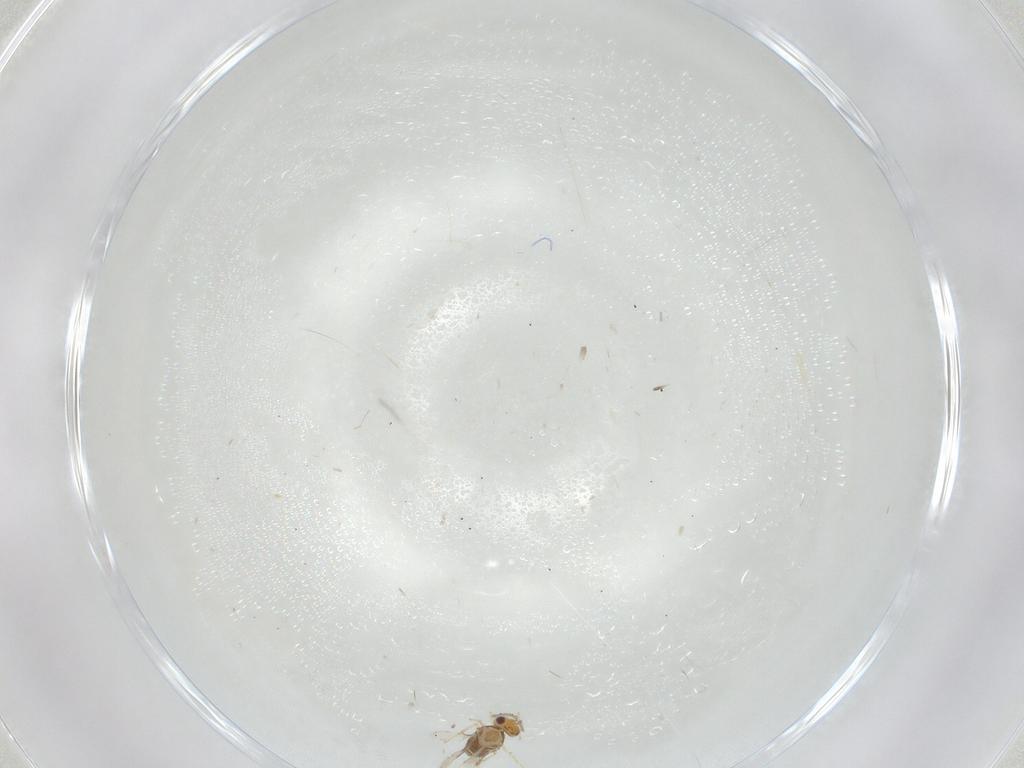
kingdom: Animalia
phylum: Arthropoda
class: Insecta
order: Hymenoptera
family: Aphelinidae
